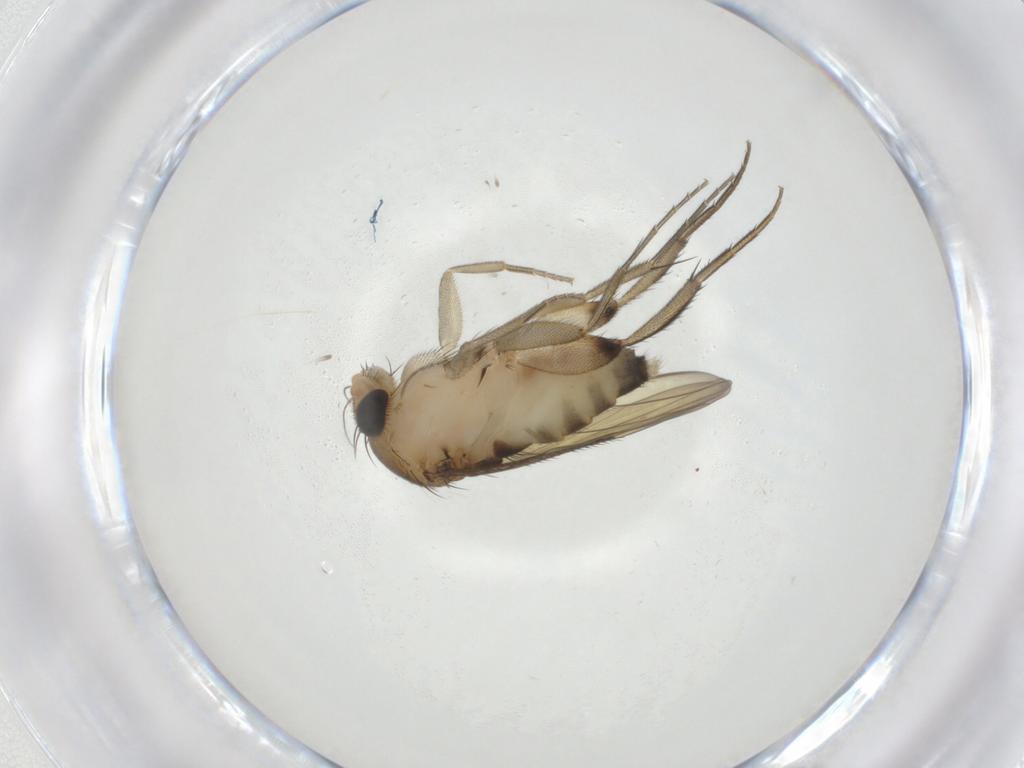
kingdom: Animalia
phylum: Arthropoda
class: Insecta
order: Diptera
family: Phoridae
